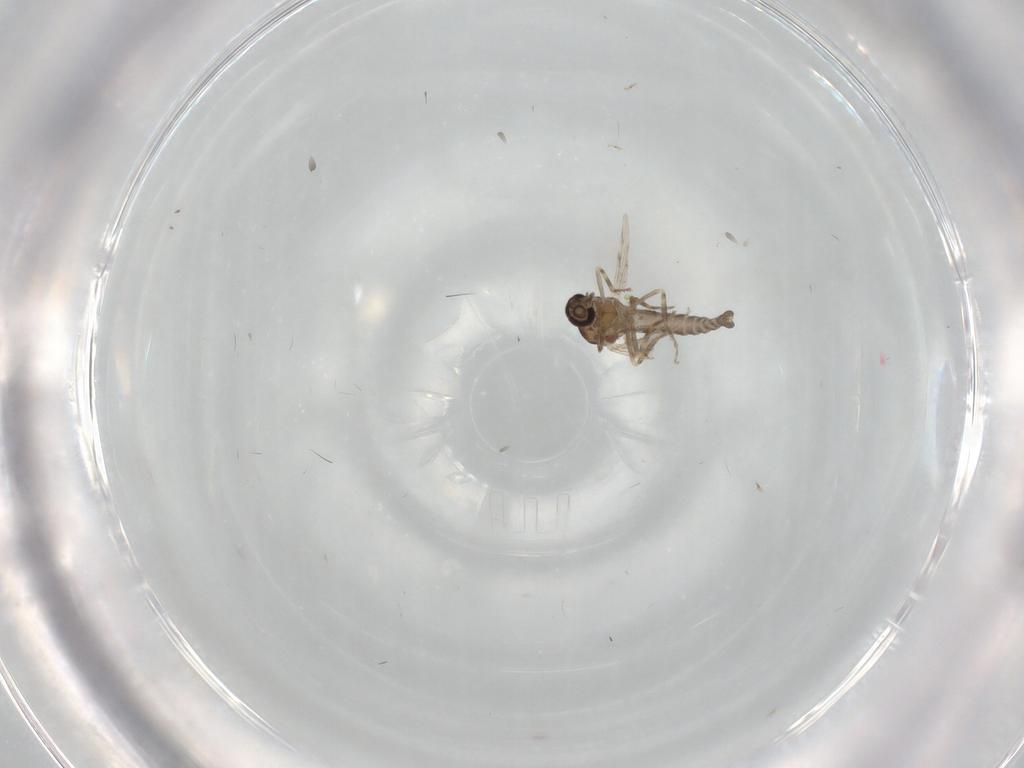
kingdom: Animalia
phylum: Arthropoda
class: Insecta
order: Diptera
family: Ceratopogonidae
